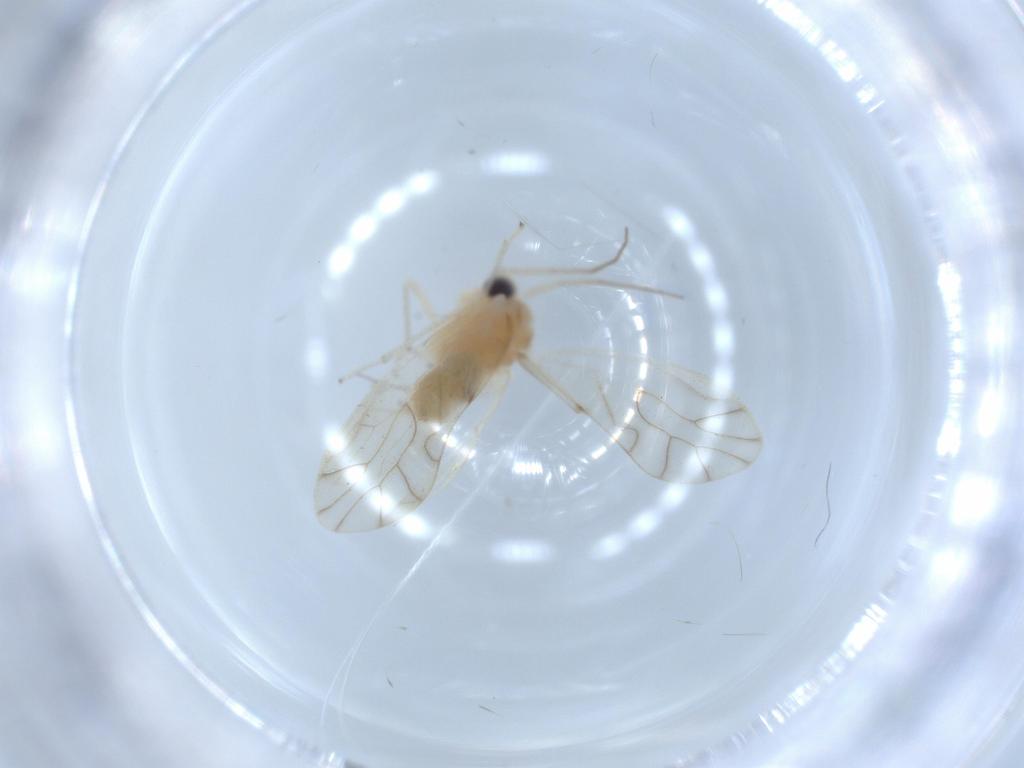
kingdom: Animalia
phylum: Arthropoda
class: Insecta
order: Psocodea
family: Caeciliusidae
